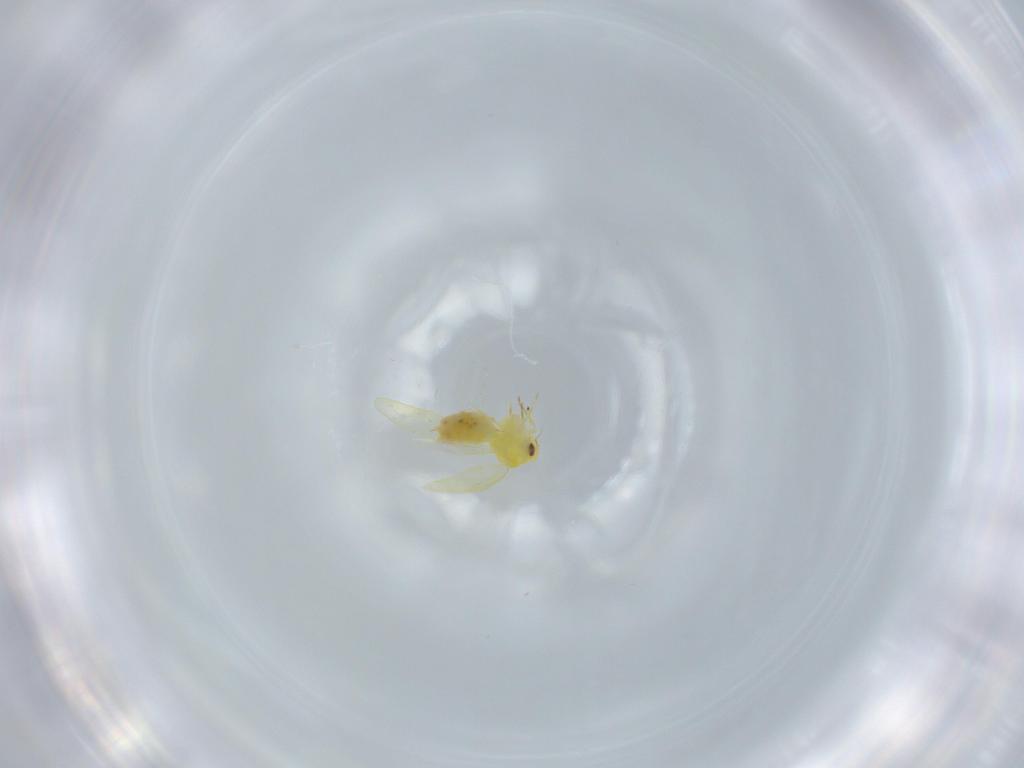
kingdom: Animalia
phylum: Arthropoda
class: Insecta
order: Hemiptera
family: Aleyrodidae
